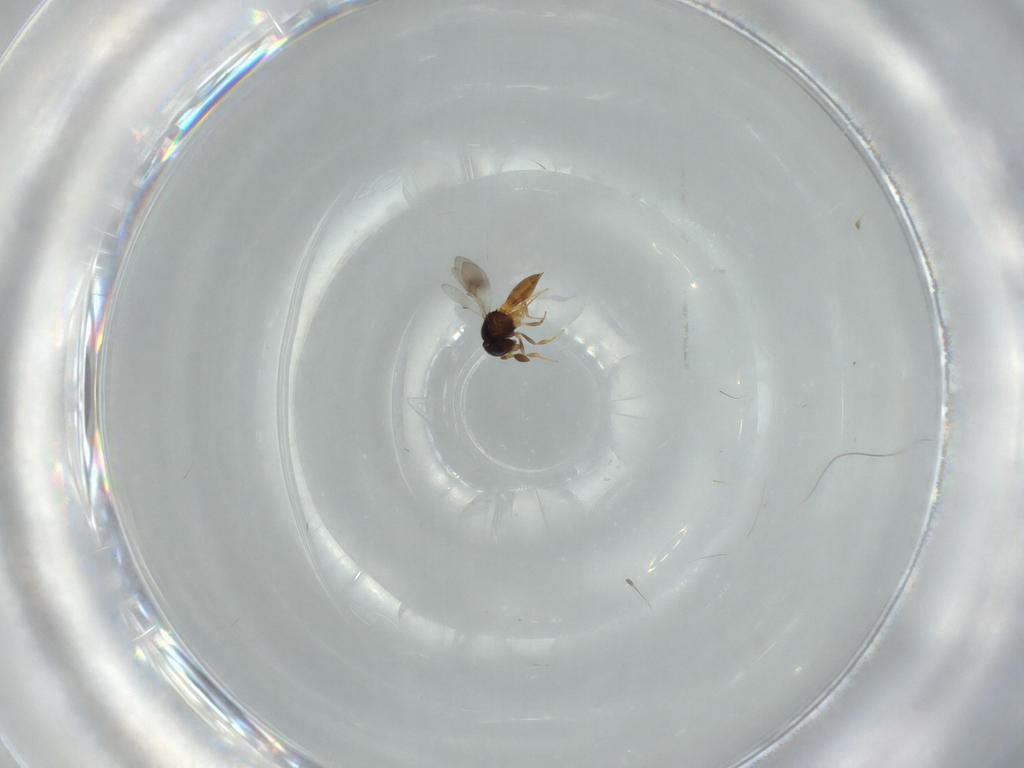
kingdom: Animalia
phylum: Arthropoda
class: Insecta
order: Hymenoptera
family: Scelionidae
